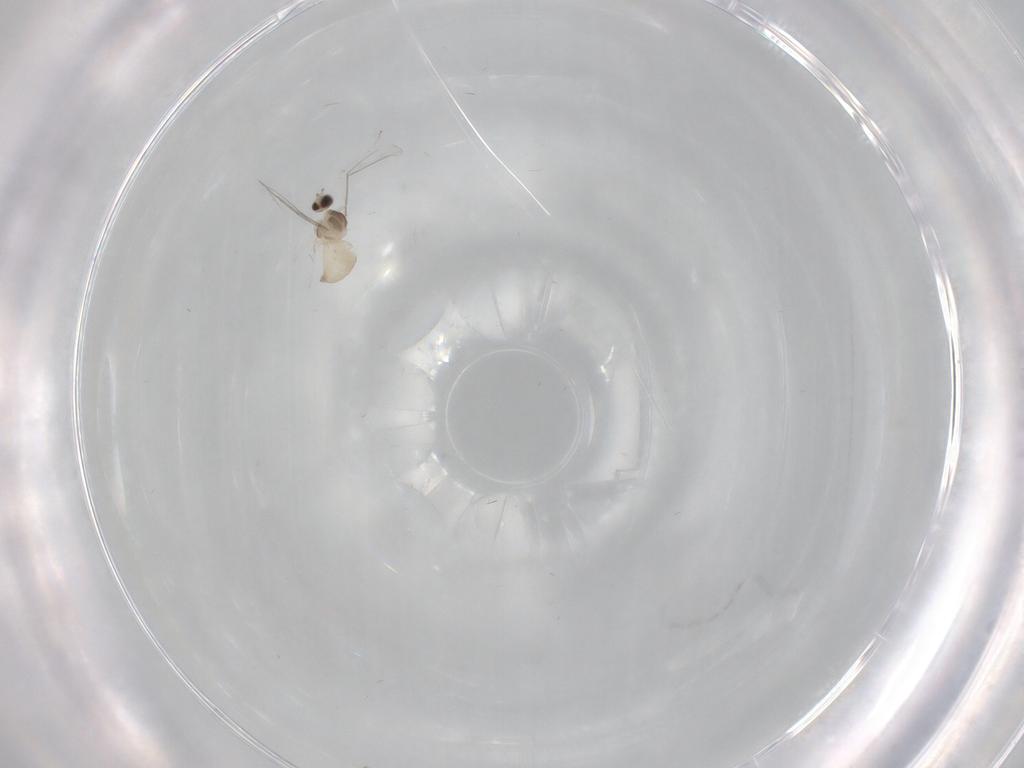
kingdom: Animalia
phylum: Arthropoda
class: Insecta
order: Diptera
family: Cecidomyiidae
